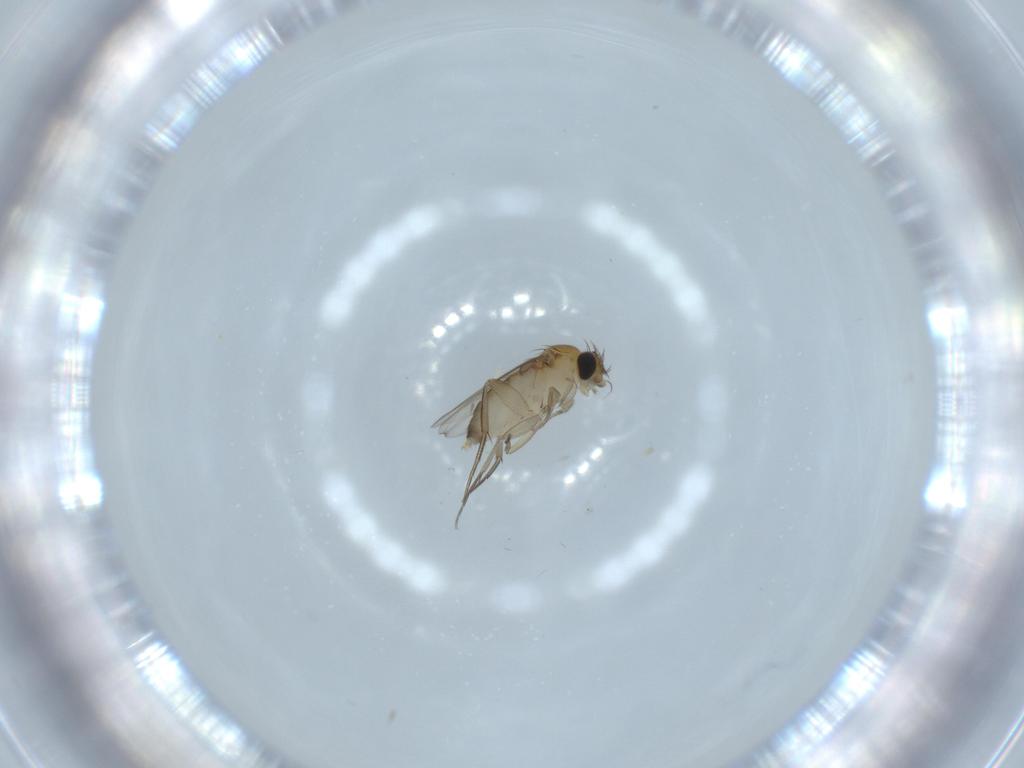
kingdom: Animalia
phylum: Arthropoda
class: Insecta
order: Diptera
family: Phoridae
